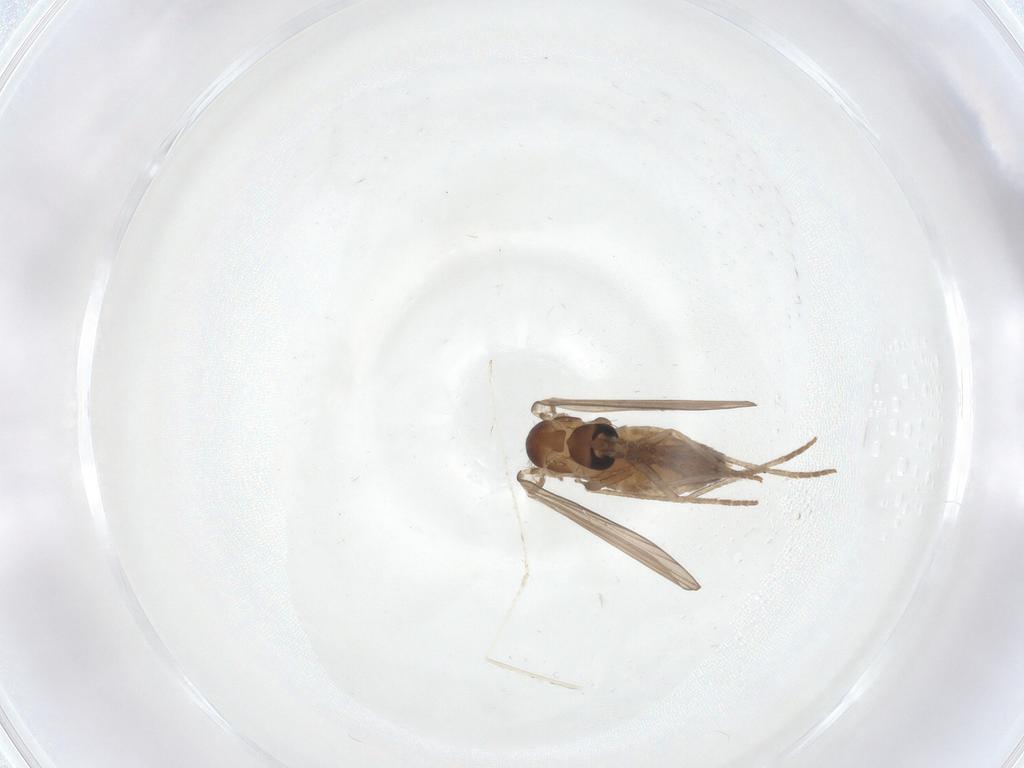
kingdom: Animalia
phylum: Arthropoda
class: Insecta
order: Diptera
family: Psychodidae
